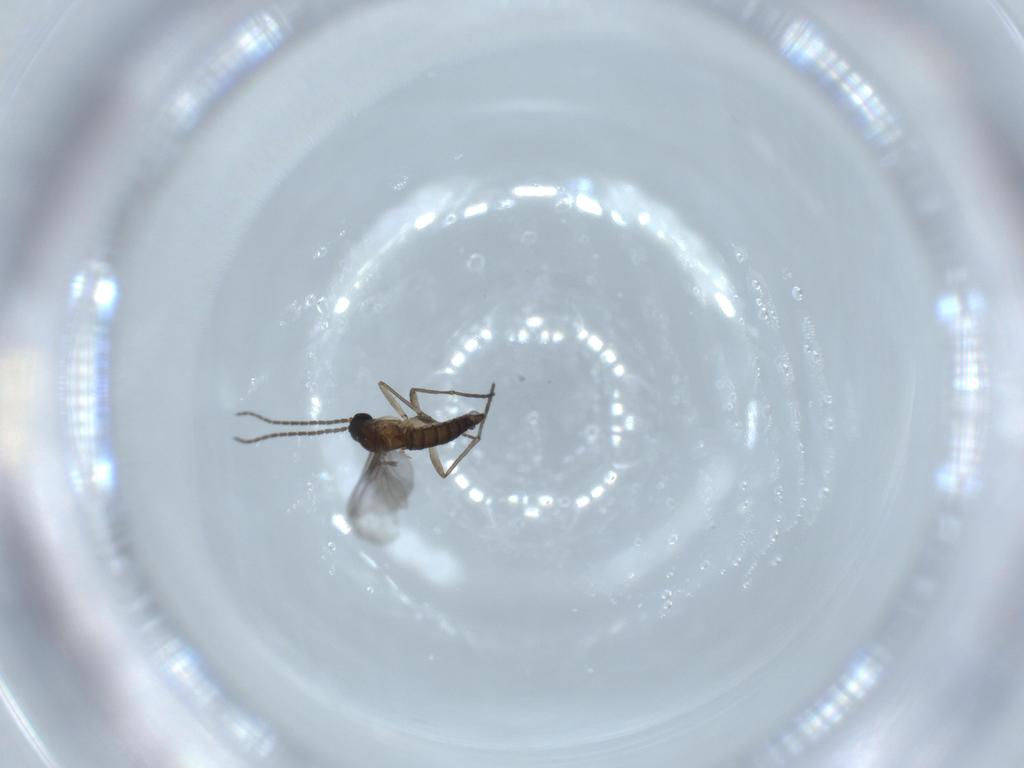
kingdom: Animalia
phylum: Arthropoda
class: Insecta
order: Diptera
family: Sciaridae
